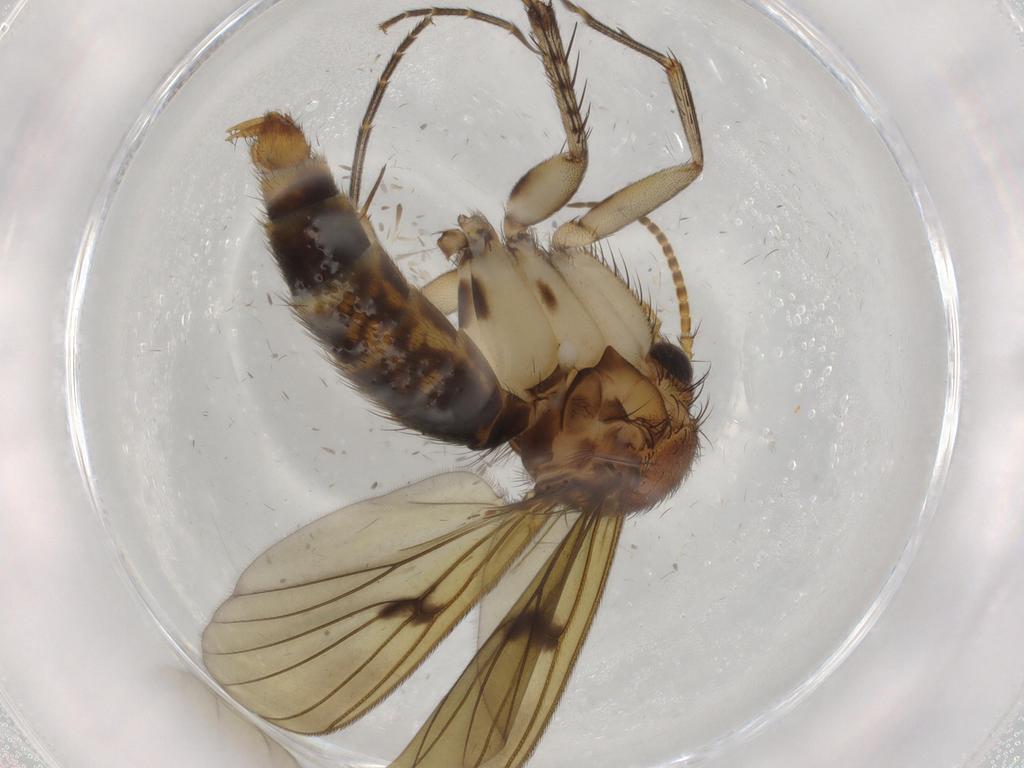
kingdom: Animalia
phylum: Arthropoda
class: Insecta
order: Diptera
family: Chironomidae
